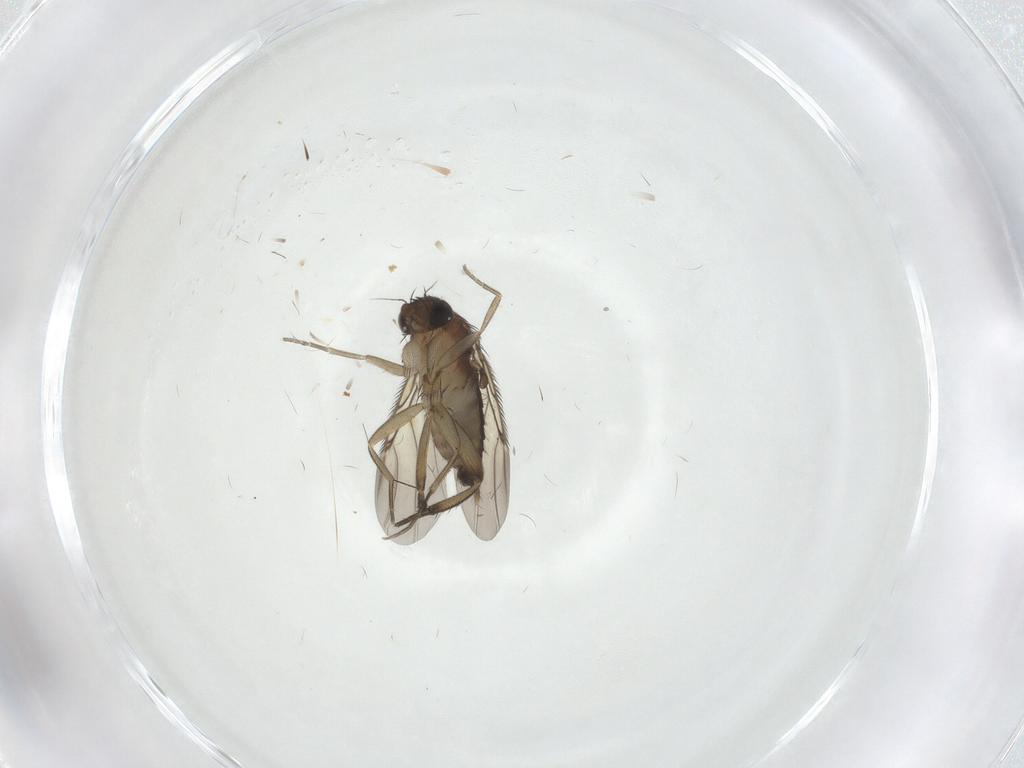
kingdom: Animalia
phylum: Arthropoda
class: Insecta
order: Diptera
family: Phoridae
